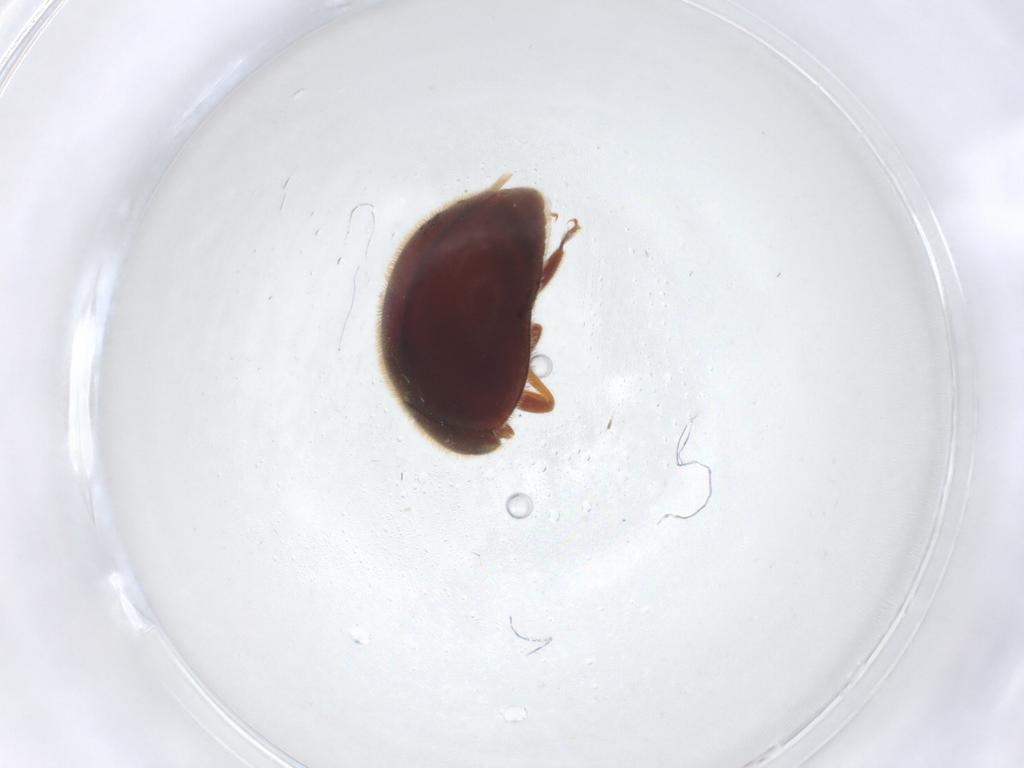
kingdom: Animalia
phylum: Arthropoda
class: Insecta
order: Coleoptera
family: Coccinellidae
